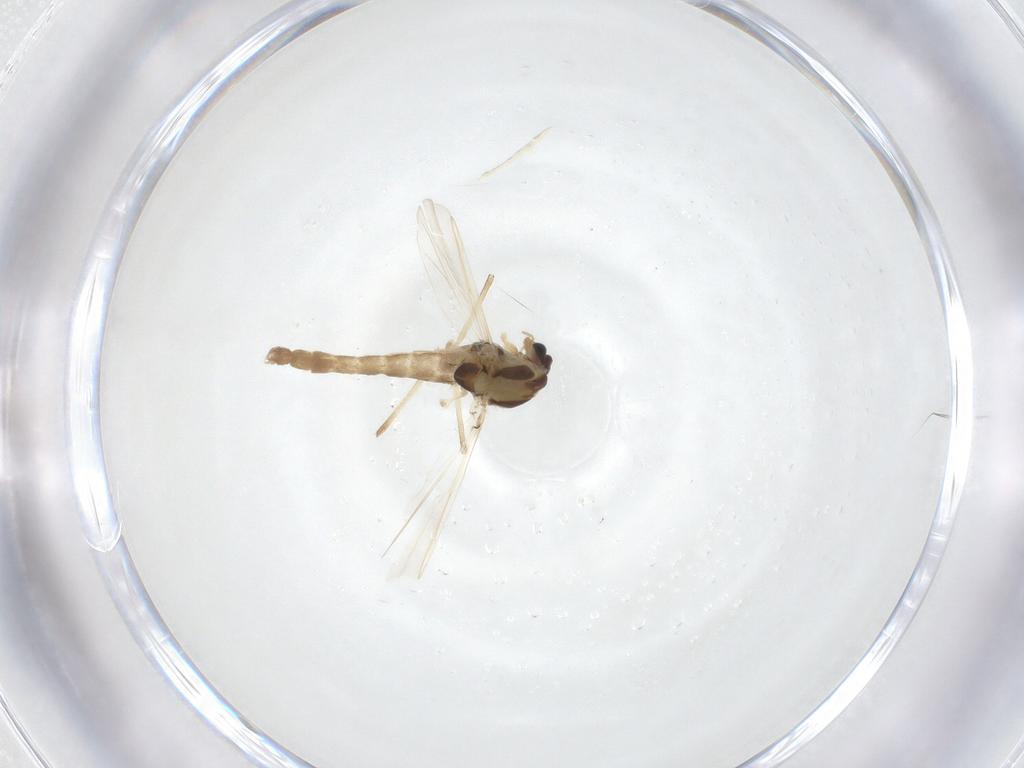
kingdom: Animalia
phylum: Arthropoda
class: Insecta
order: Diptera
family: Chironomidae
